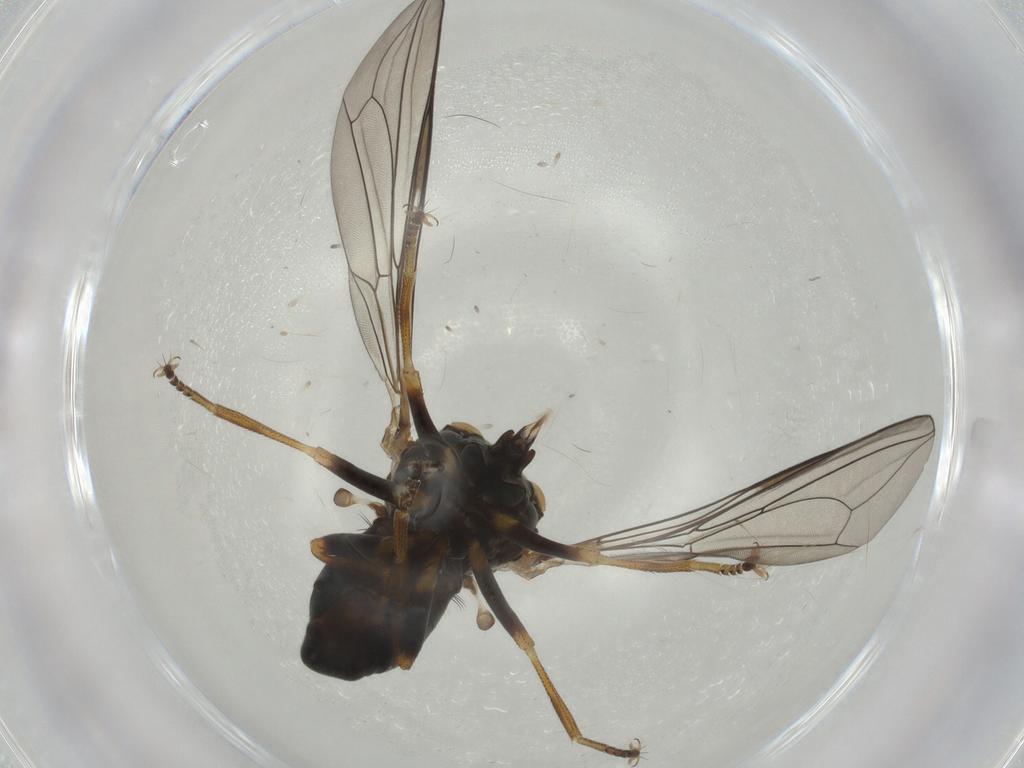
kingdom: Animalia
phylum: Arthropoda
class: Insecta
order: Diptera
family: Pipunculidae
